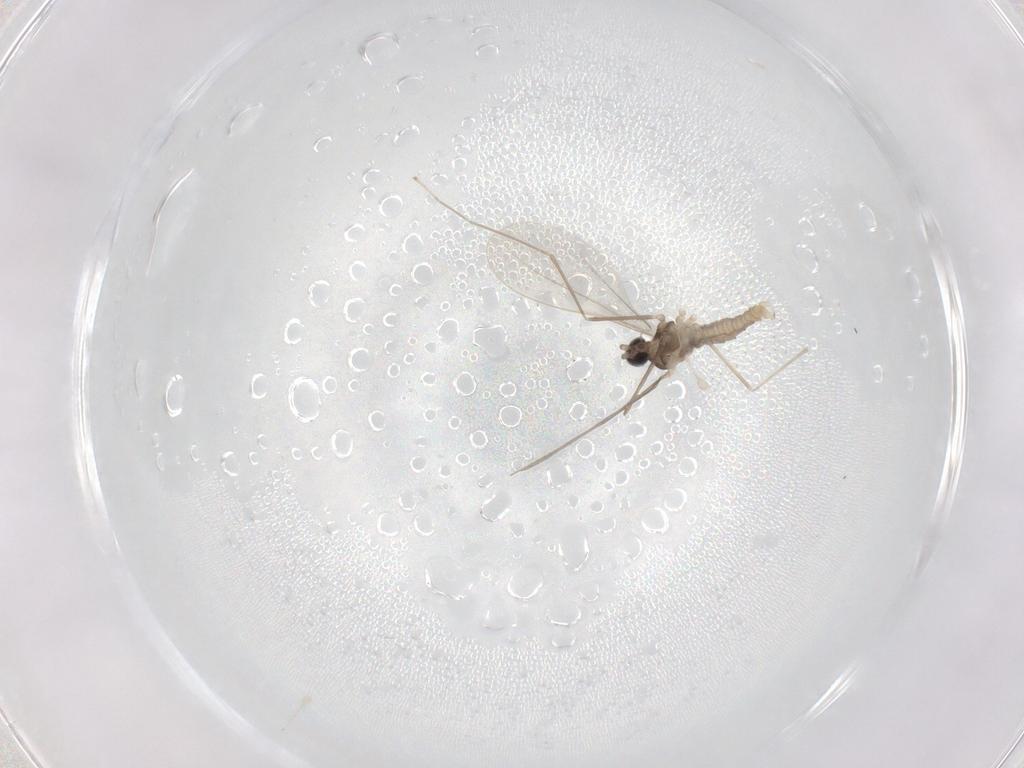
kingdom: Animalia
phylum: Arthropoda
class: Insecta
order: Diptera
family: Cecidomyiidae
